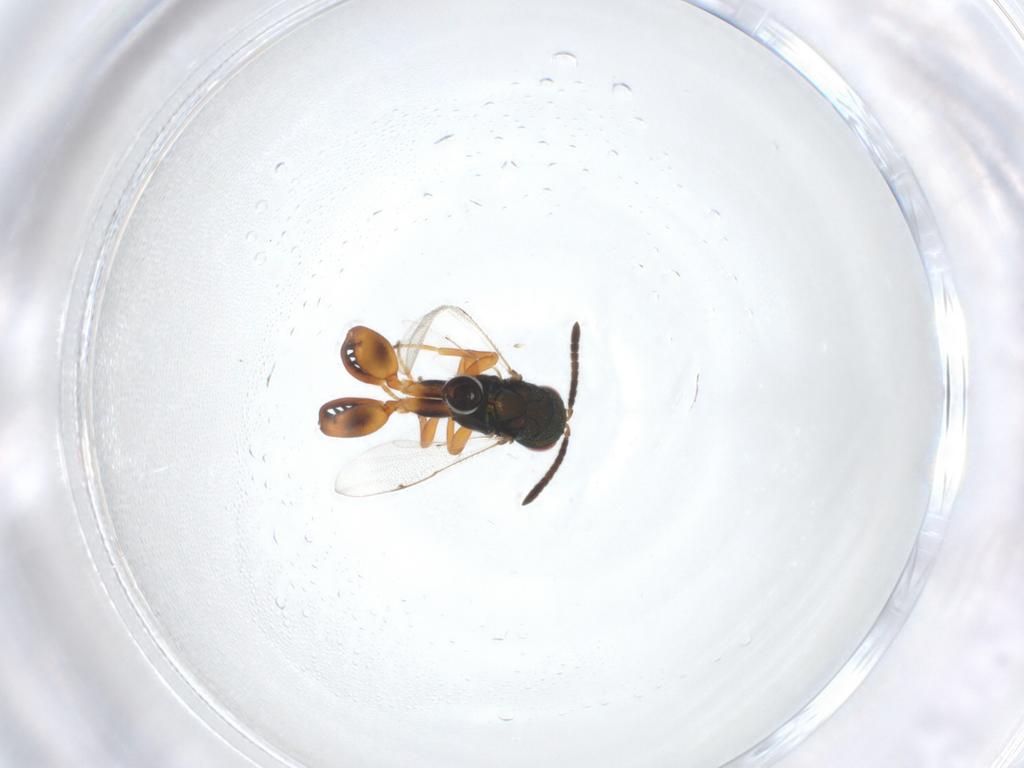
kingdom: Animalia
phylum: Arthropoda
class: Insecta
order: Hymenoptera
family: Torymidae
